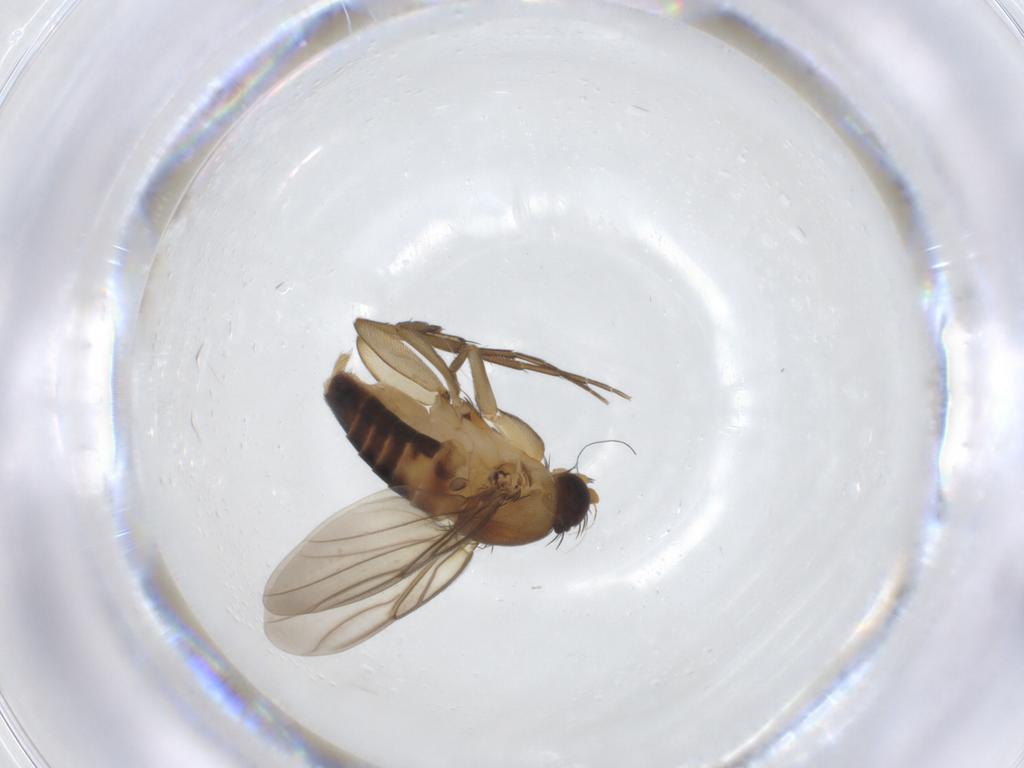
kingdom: Animalia
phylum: Arthropoda
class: Insecta
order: Diptera
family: Phoridae
